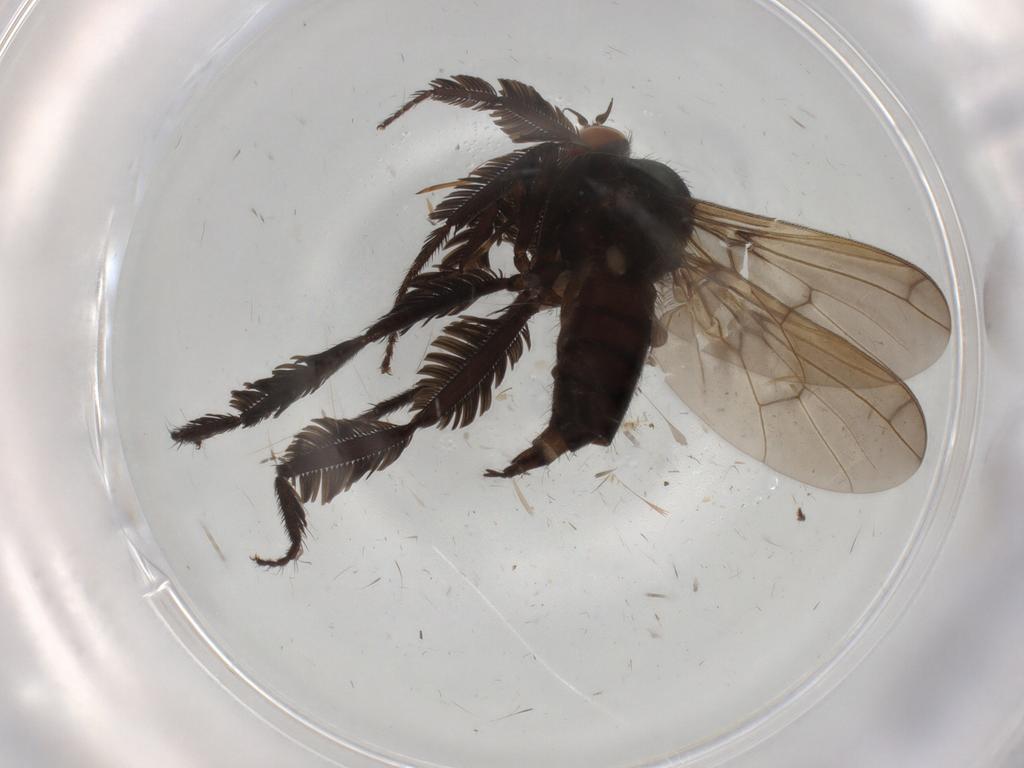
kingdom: Animalia
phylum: Arthropoda
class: Insecta
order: Diptera
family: Empididae
